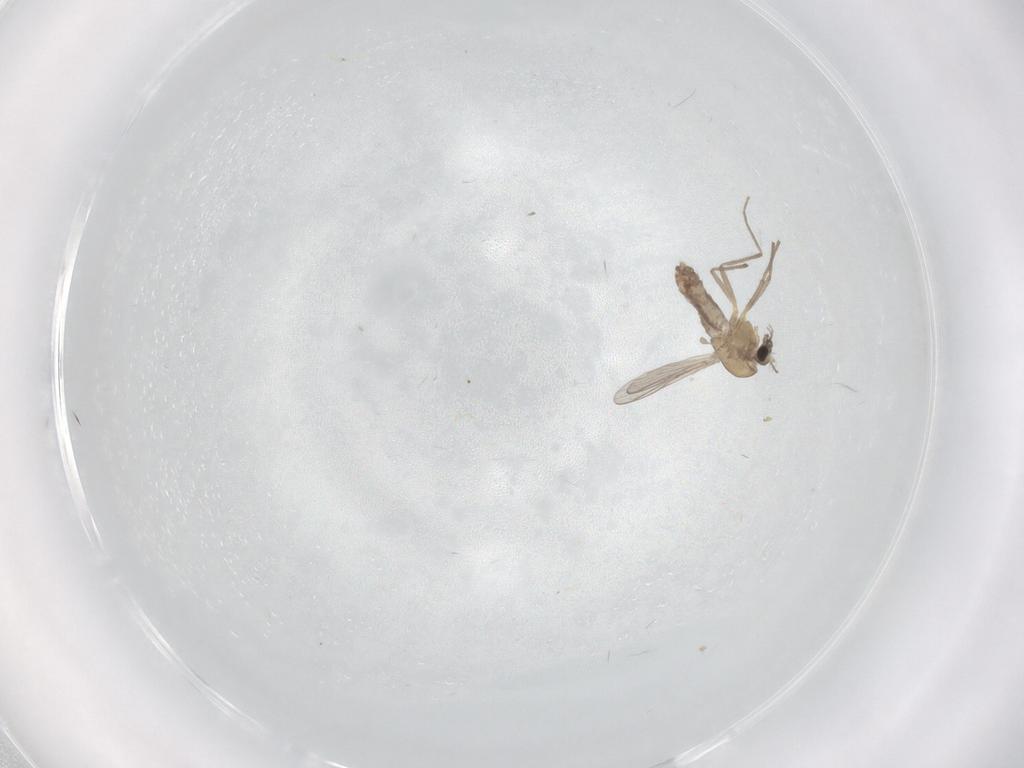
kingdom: Animalia
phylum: Arthropoda
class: Insecta
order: Diptera
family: Chironomidae
